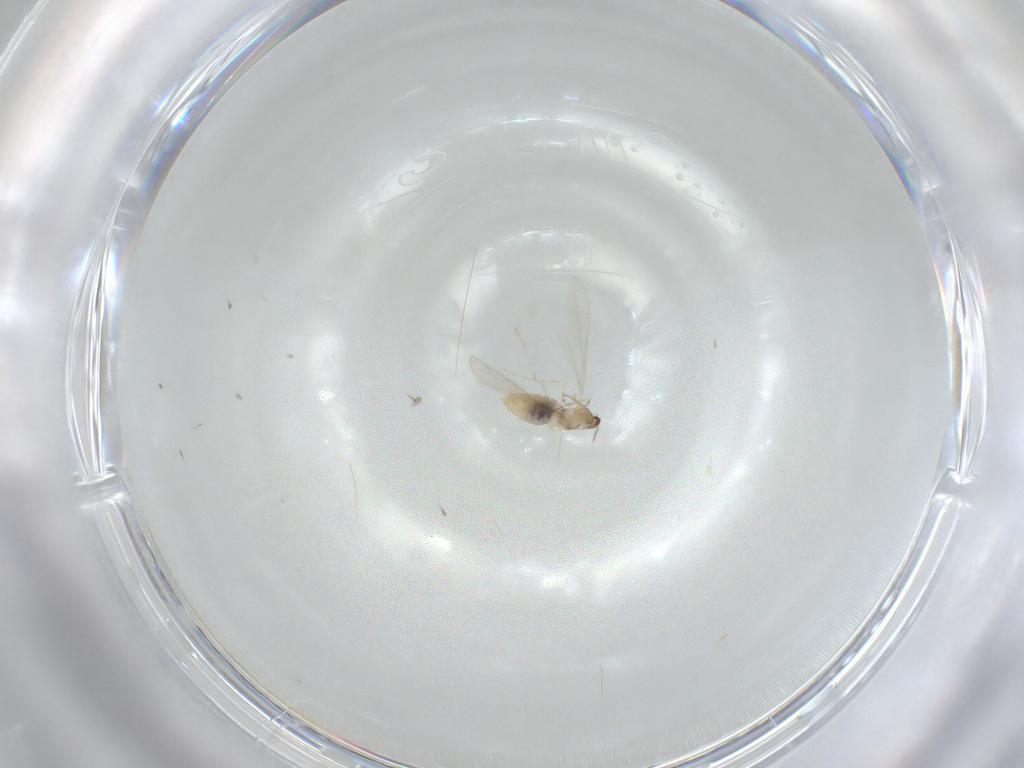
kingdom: Animalia
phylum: Arthropoda
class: Insecta
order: Diptera
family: Cecidomyiidae
